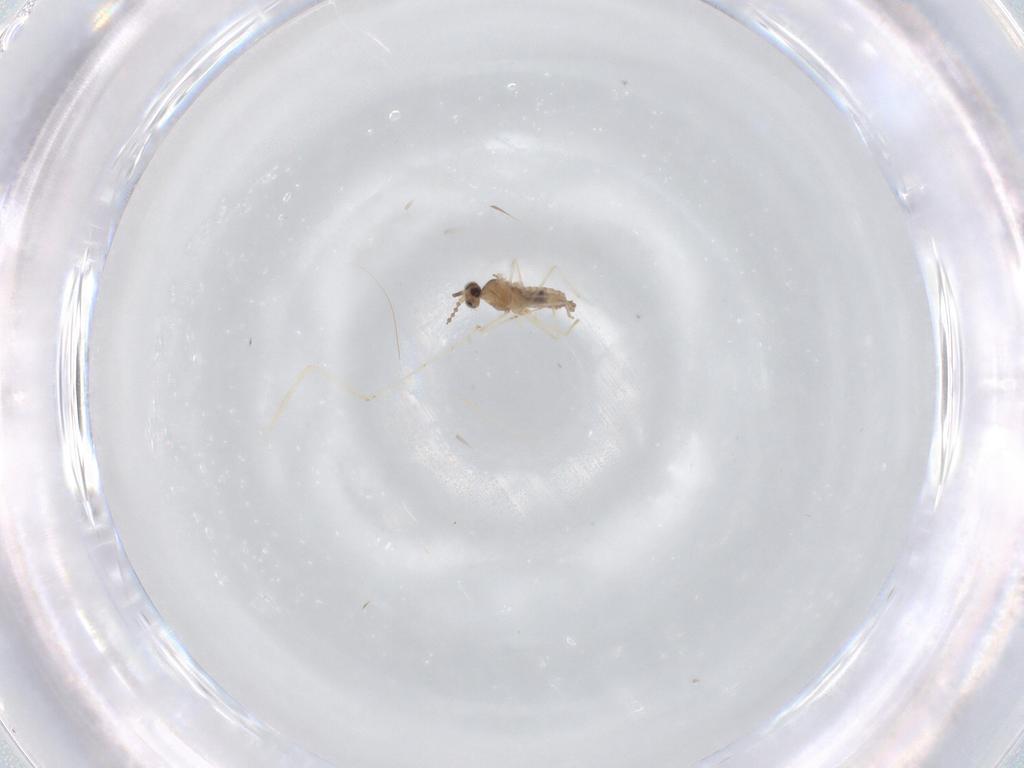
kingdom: Animalia
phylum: Arthropoda
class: Insecta
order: Diptera
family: Cecidomyiidae
